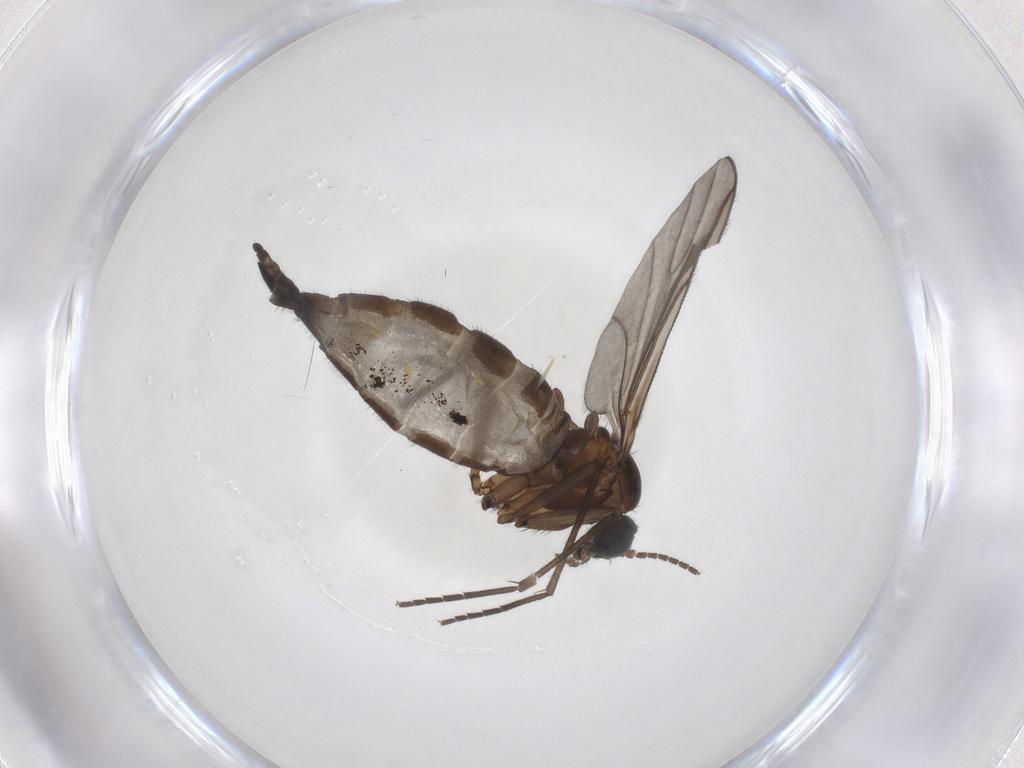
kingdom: Animalia
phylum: Arthropoda
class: Insecta
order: Diptera
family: Sciaridae
